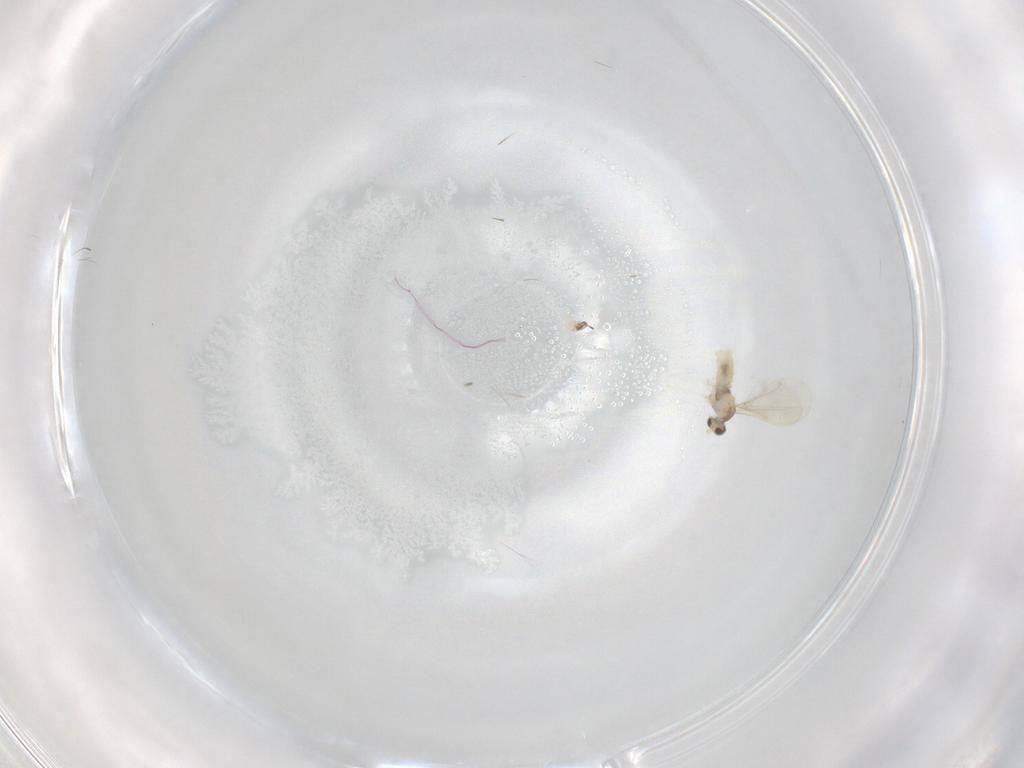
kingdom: Animalia
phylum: Arthropoda
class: Insecta
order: Diptera
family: Cecidomyiidae
